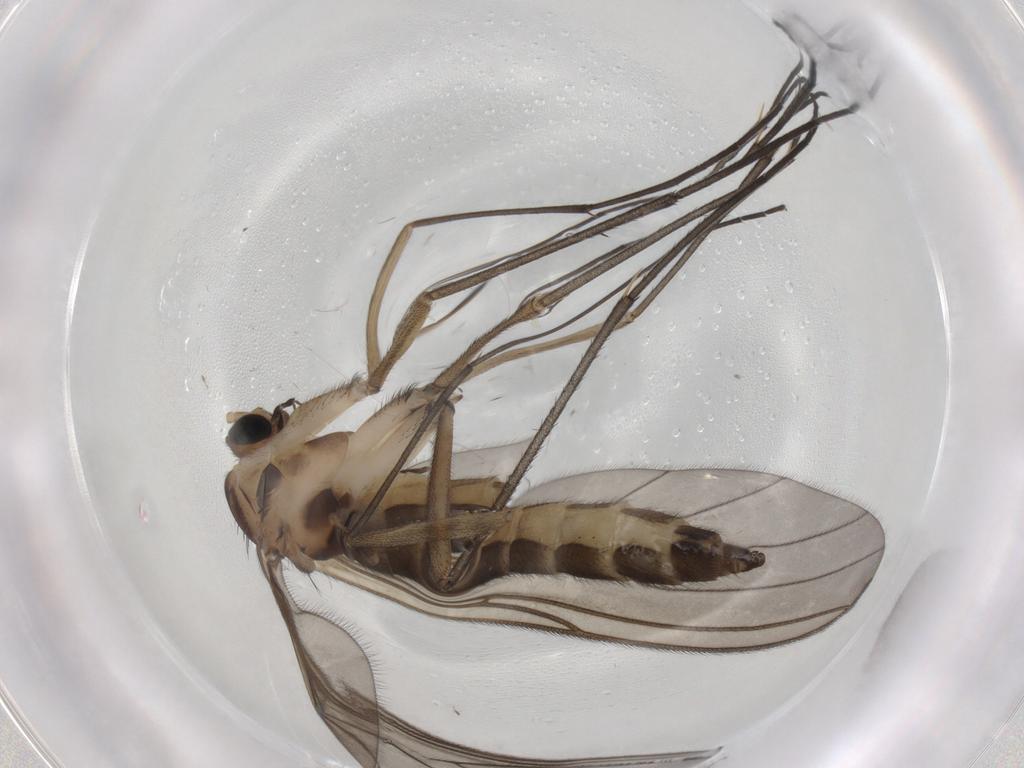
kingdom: Animalia
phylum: Arthropoda
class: Insecta
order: Diptera
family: Sciaridae
